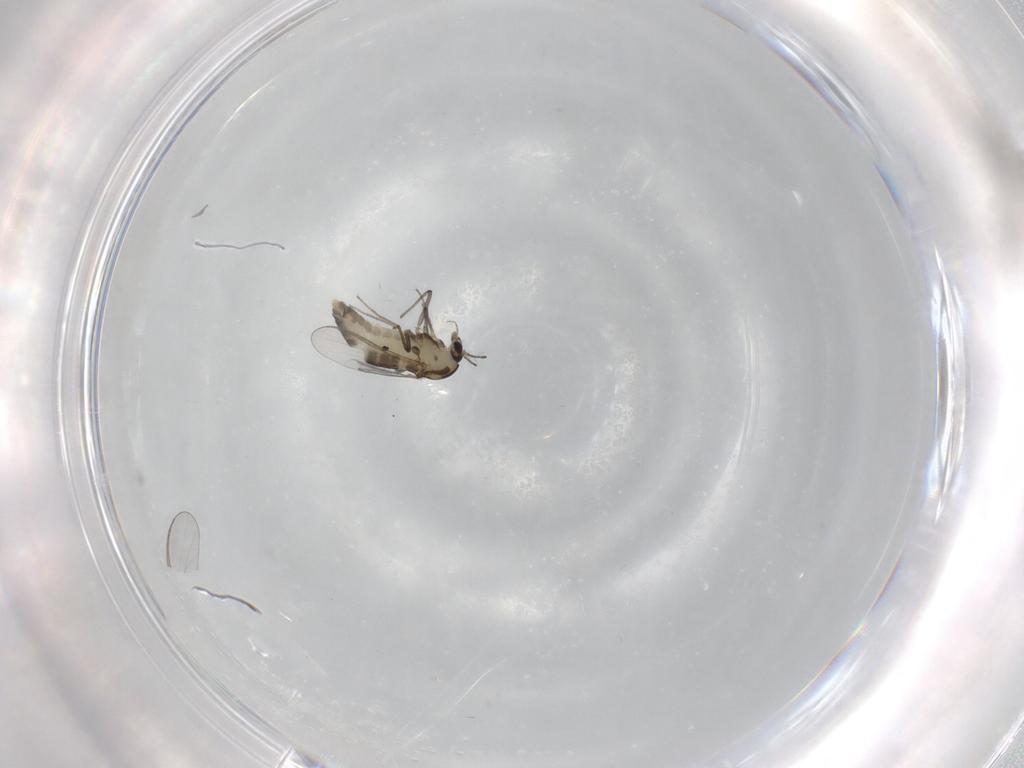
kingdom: Animalia
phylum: Arthropoda
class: Insecta
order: Diptera
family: Chironomidae
